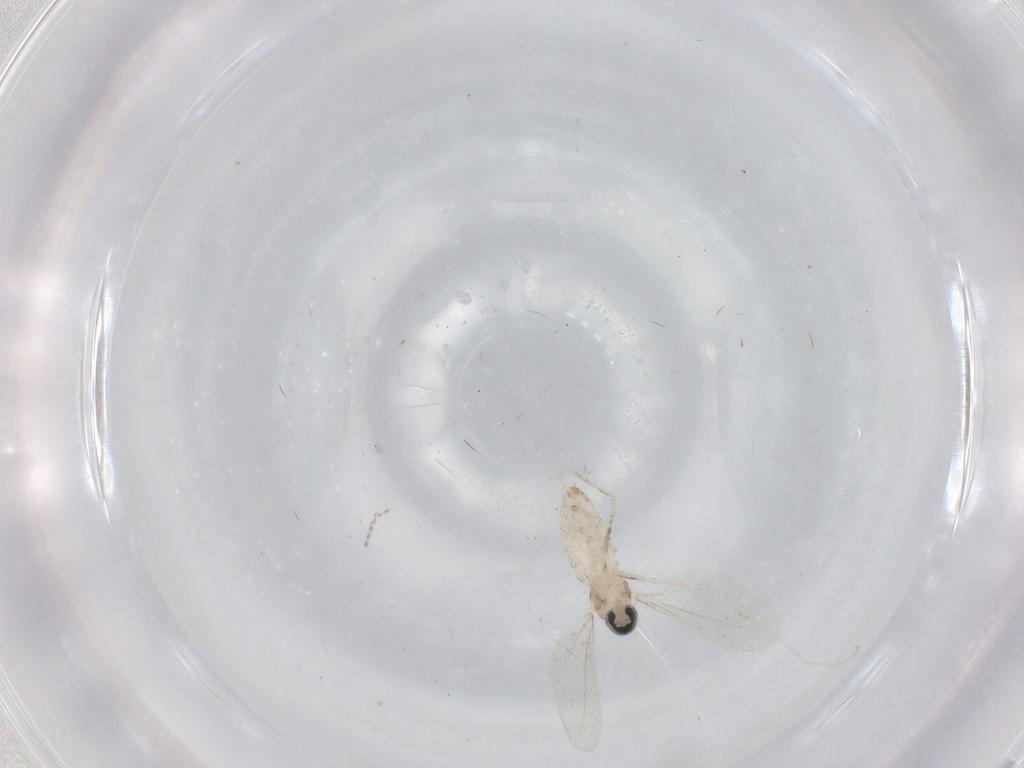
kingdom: Animalia
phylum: Arthropoda
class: Insecta
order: Diptera
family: Cecidomyiidae
